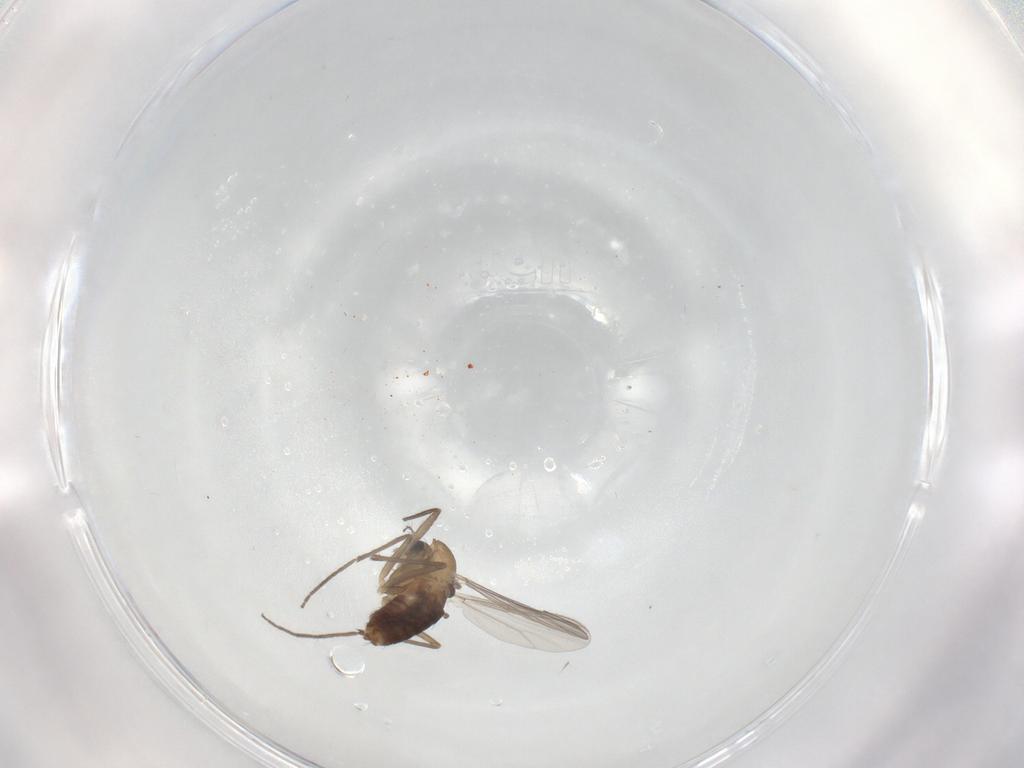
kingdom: Animalia
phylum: Arthropoda
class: Insecta
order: Diptera
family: Chironomidae
